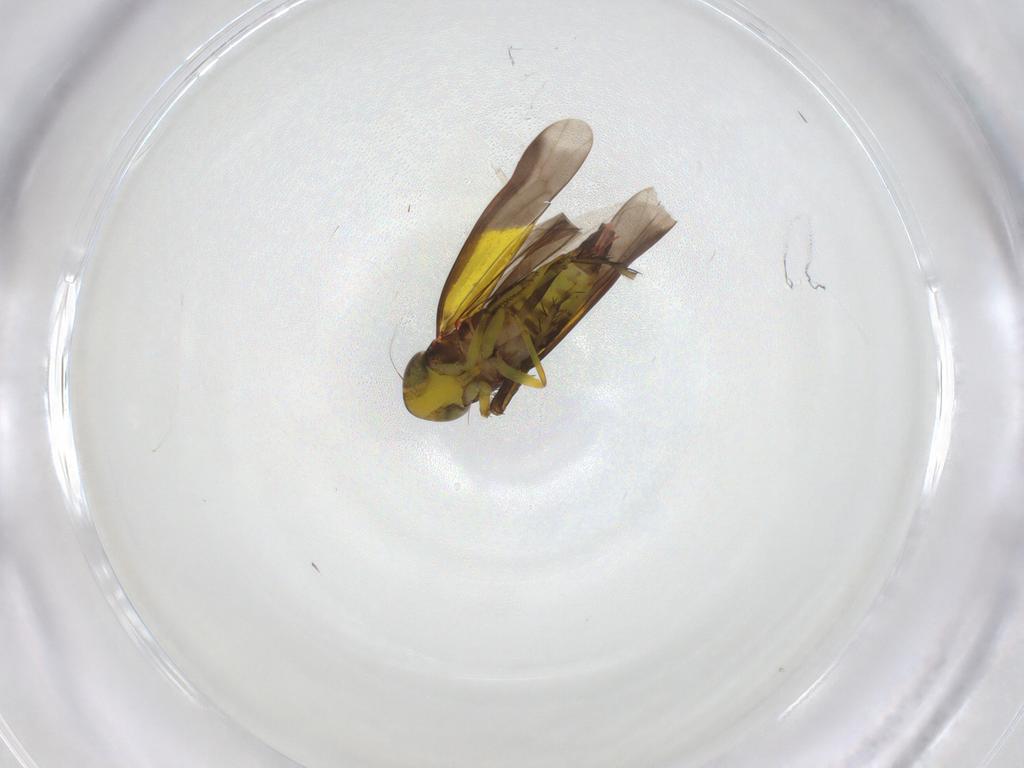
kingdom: Animalia
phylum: Arthropoda
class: Insecta
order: Hemiptera
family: Cicadellidae
